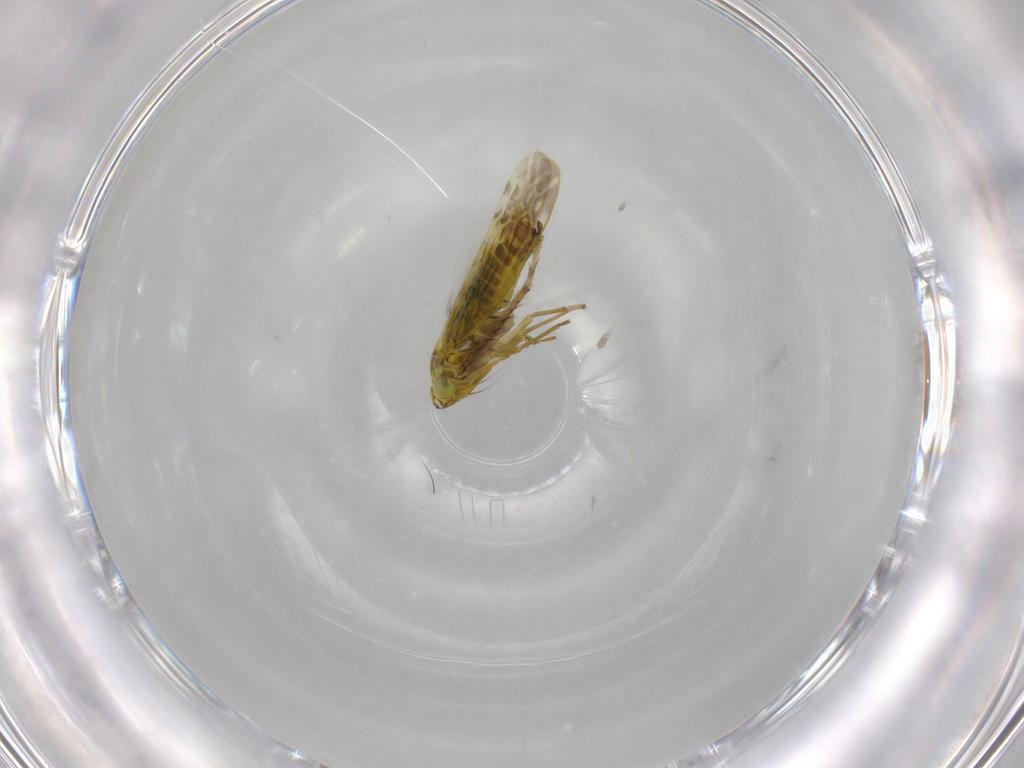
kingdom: Animalia
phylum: Arthropoda
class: Insecta
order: Hemiptera
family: Cicadellidae
